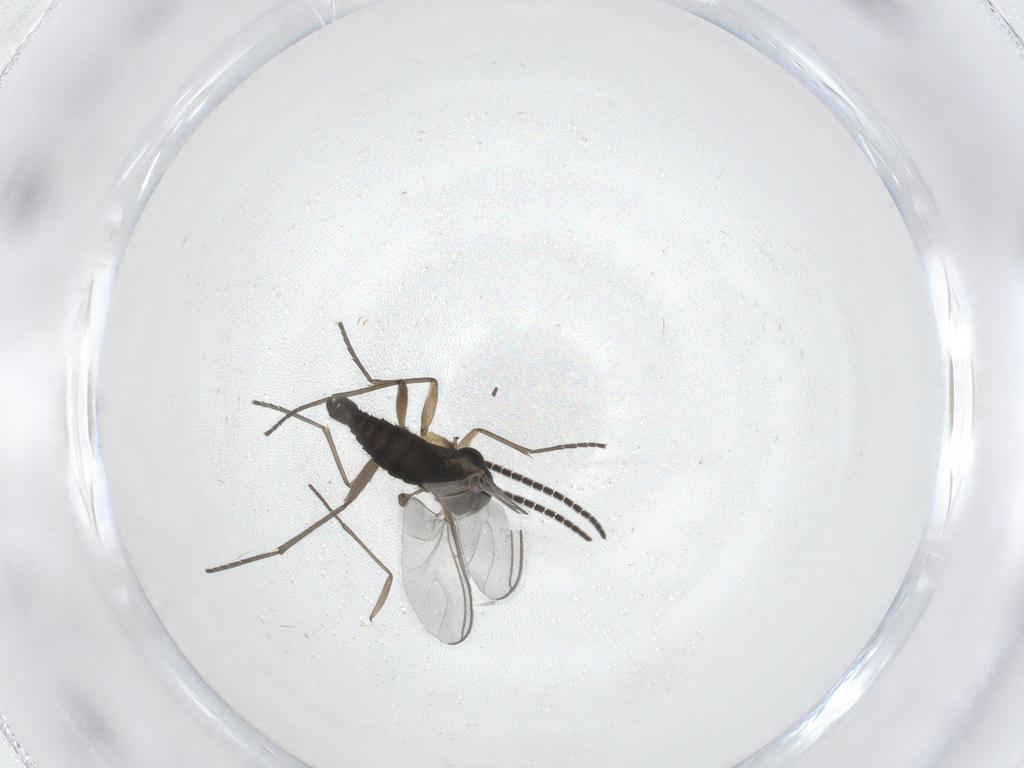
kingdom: Animalia
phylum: Arthropoda
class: Insecta
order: Diptera
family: Sciaridae
